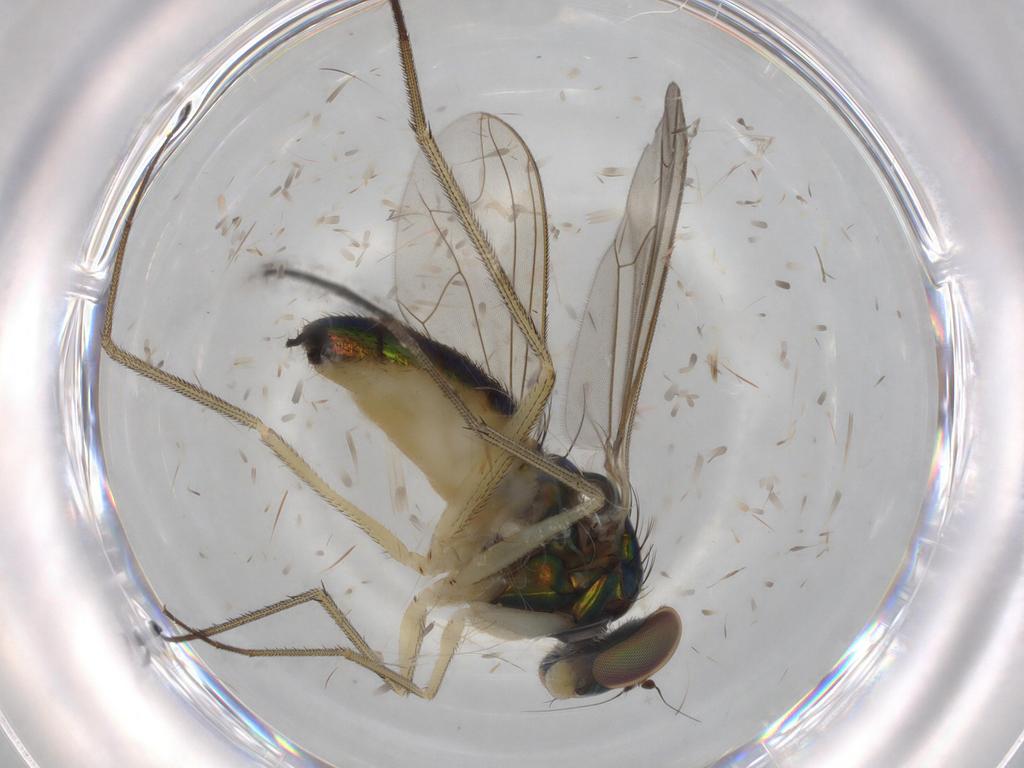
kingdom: Animalia
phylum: Arthropoda
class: Insecta
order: Diptera
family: Dolichopodidae
